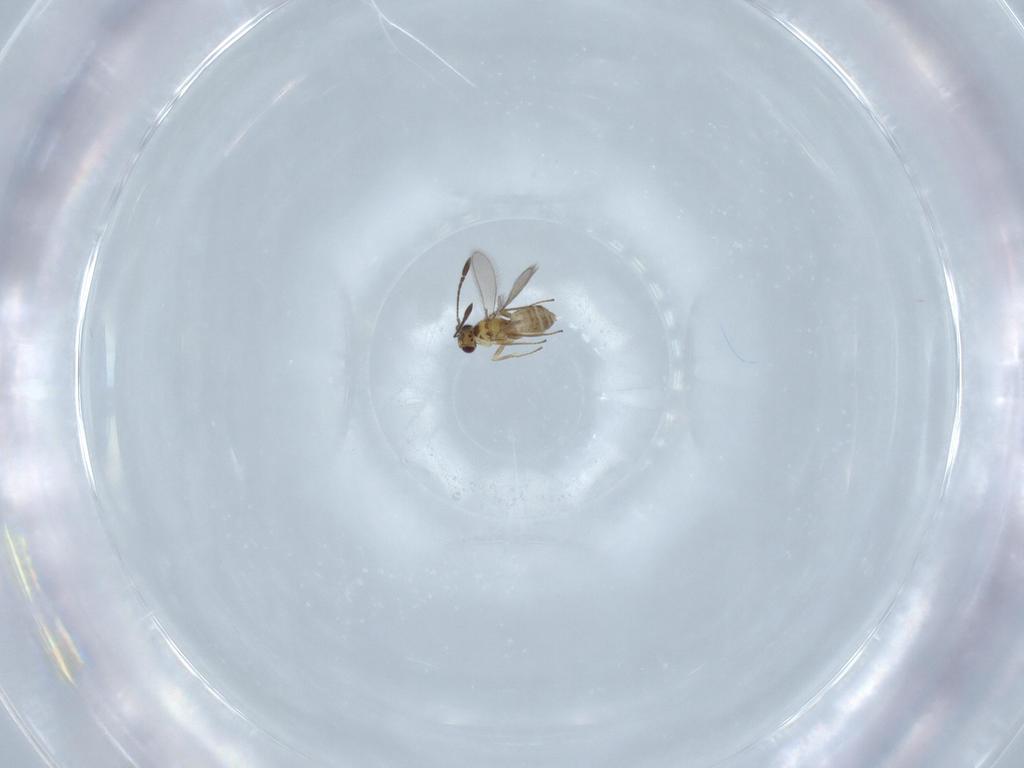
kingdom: Animalia
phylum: Arthropoda
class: Insecta
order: Hymenoptera
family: Mymaridae
